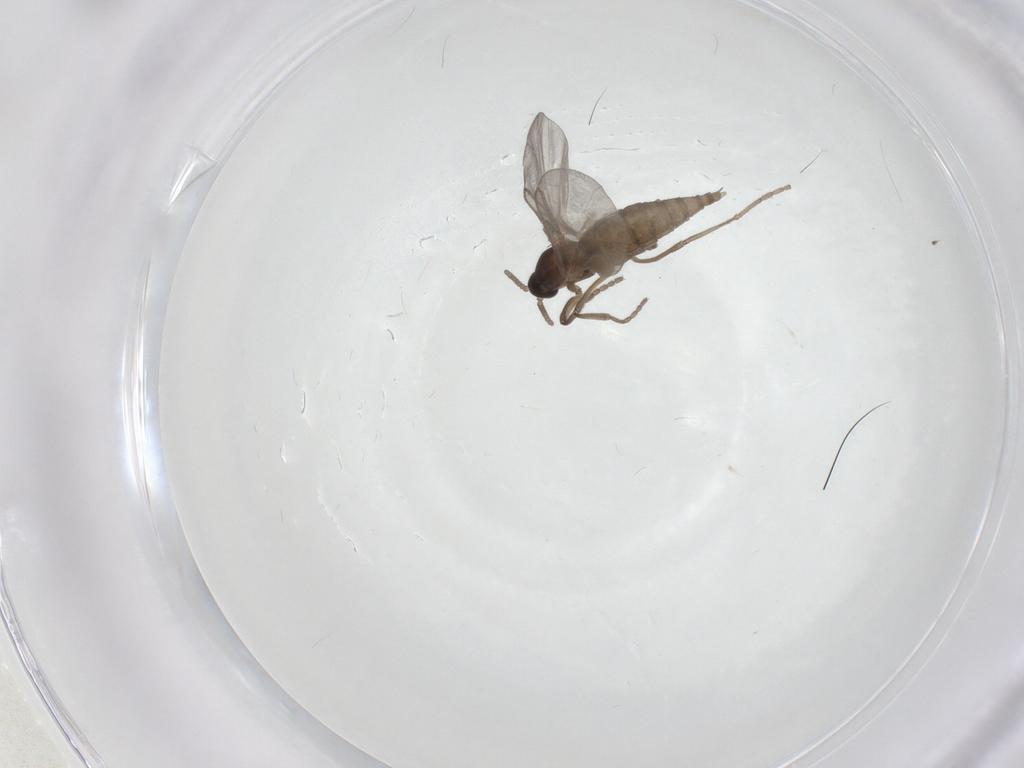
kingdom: Animalia
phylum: Arthropoda
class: Insecta
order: Diptera
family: Cecidomyiidae
